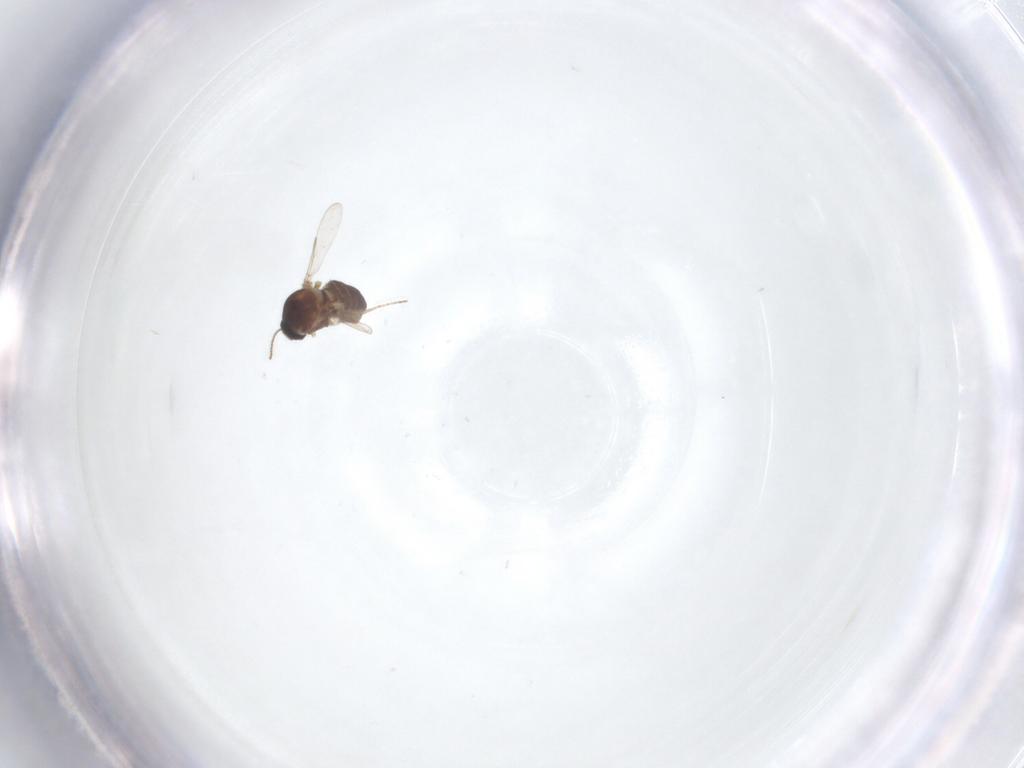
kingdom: Animalia
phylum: Arthropoda
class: Insecta
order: Diptera
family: Ceratopogonidae
